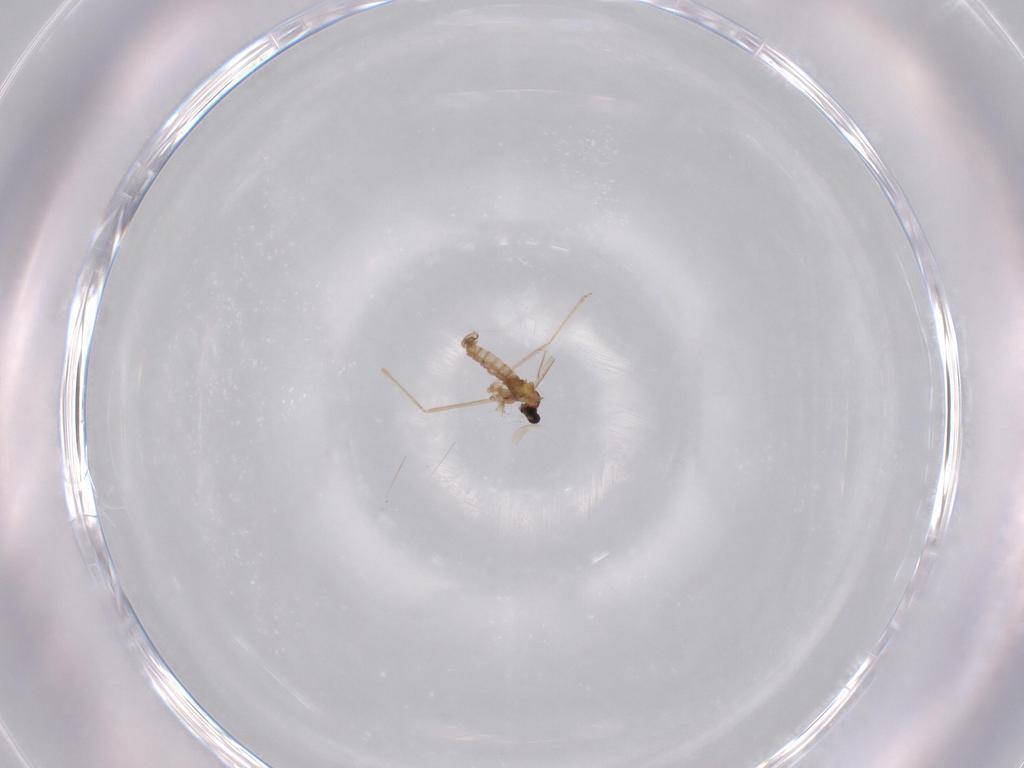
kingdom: Animalia
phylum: Arthropoda
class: Insecta
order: Diptera
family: Cecidomyiidae
